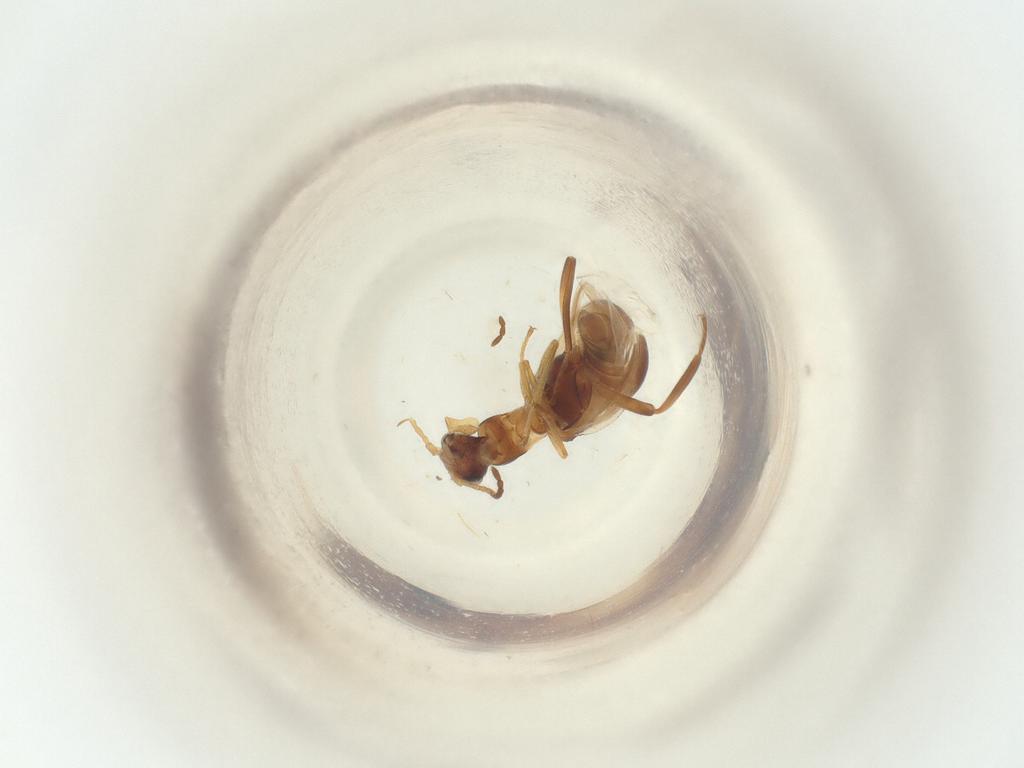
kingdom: Animalia
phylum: Arthropoda
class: Insecta
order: Coleoptera
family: Melyridae
